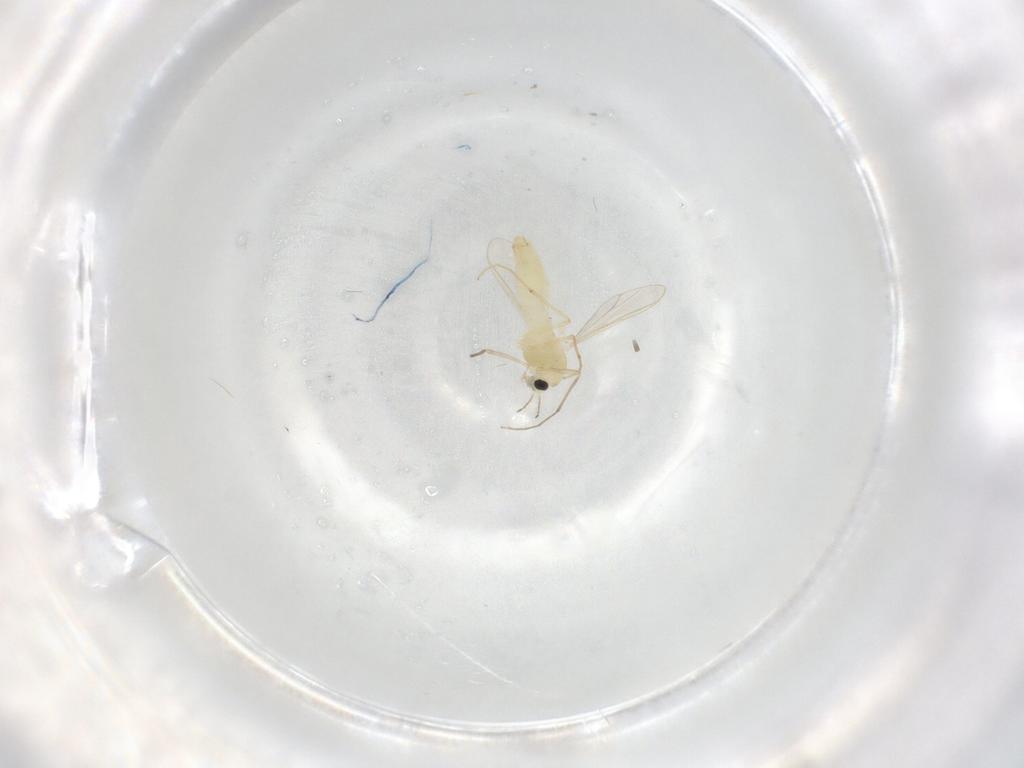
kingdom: Animalia
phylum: Arthropoda
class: Insecta
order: Diptera
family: Chironomidae
